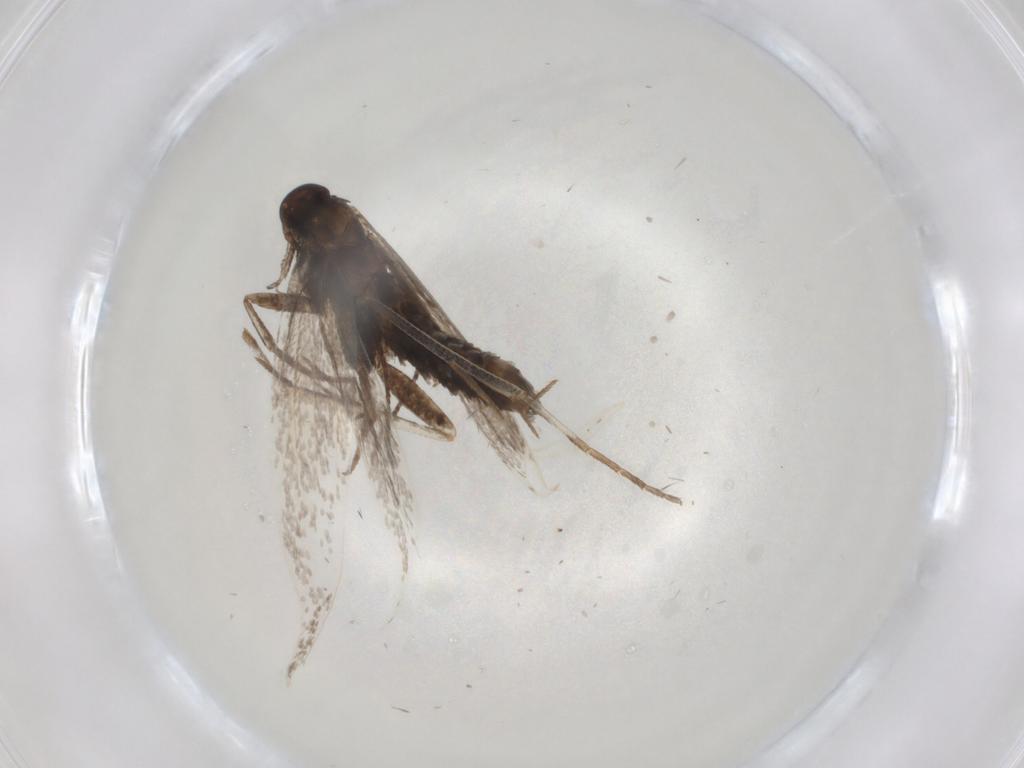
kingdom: Animalia
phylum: Arthropoda
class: Insecta
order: Lepidoptera
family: Gelechiidae
